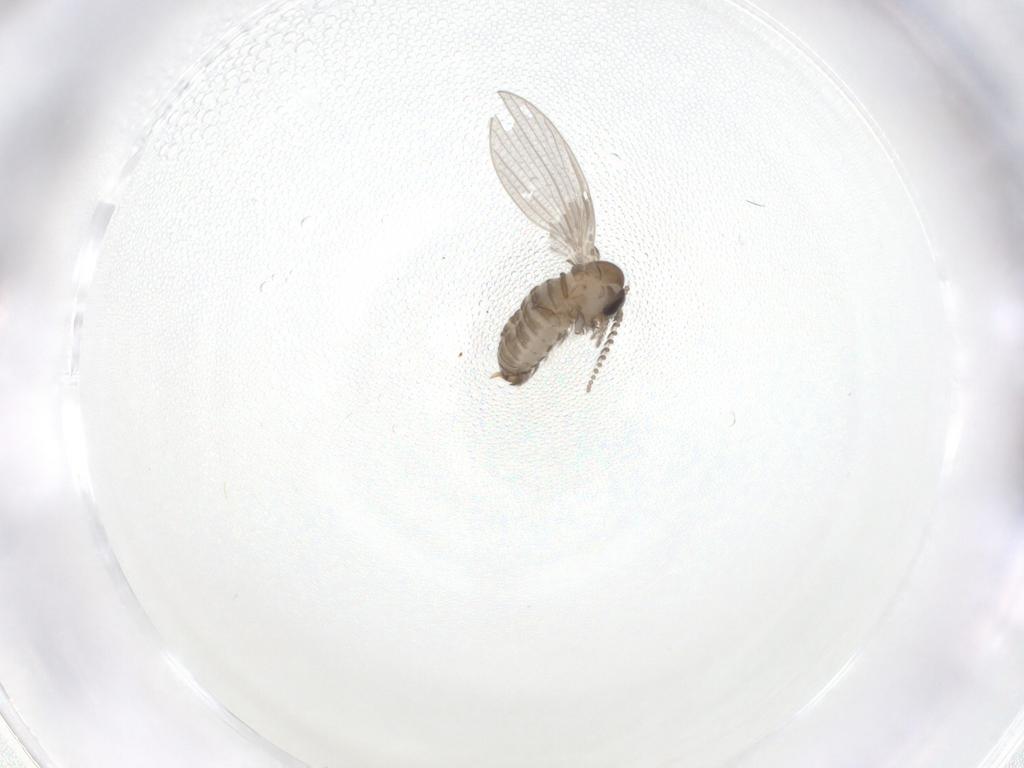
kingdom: Animalia
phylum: Arthropoda
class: Insecta
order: Diptera
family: Psychodidae
